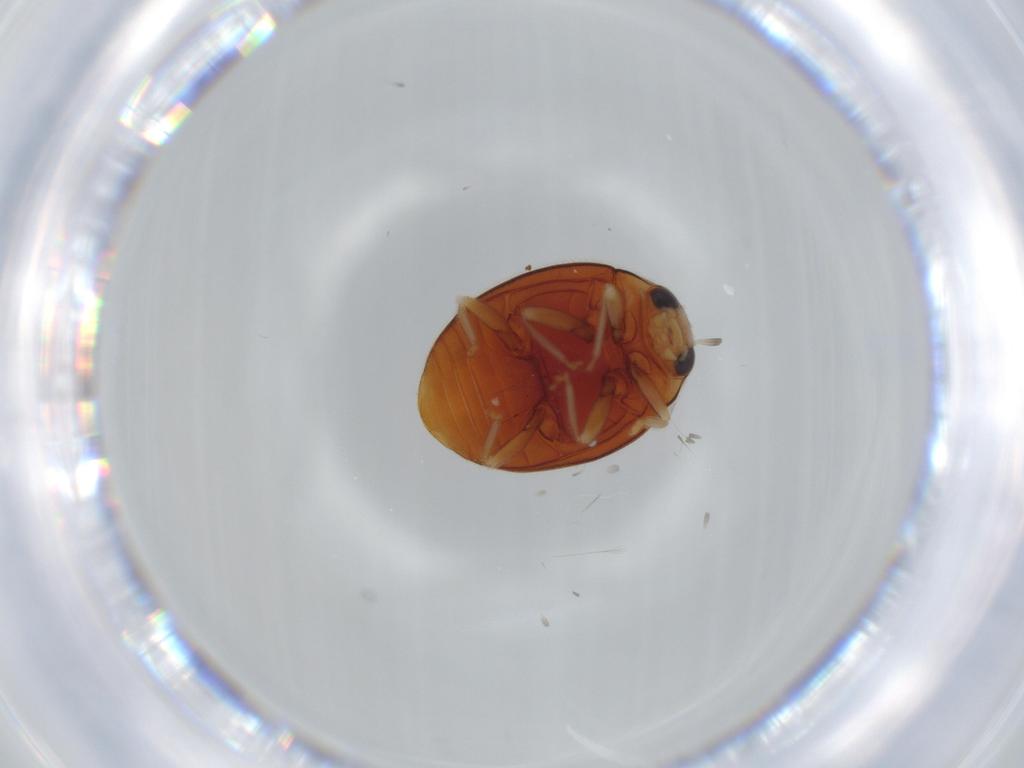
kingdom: Animalia
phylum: Arthropoda
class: Insecta
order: Coleoptera
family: Coccinellidae
